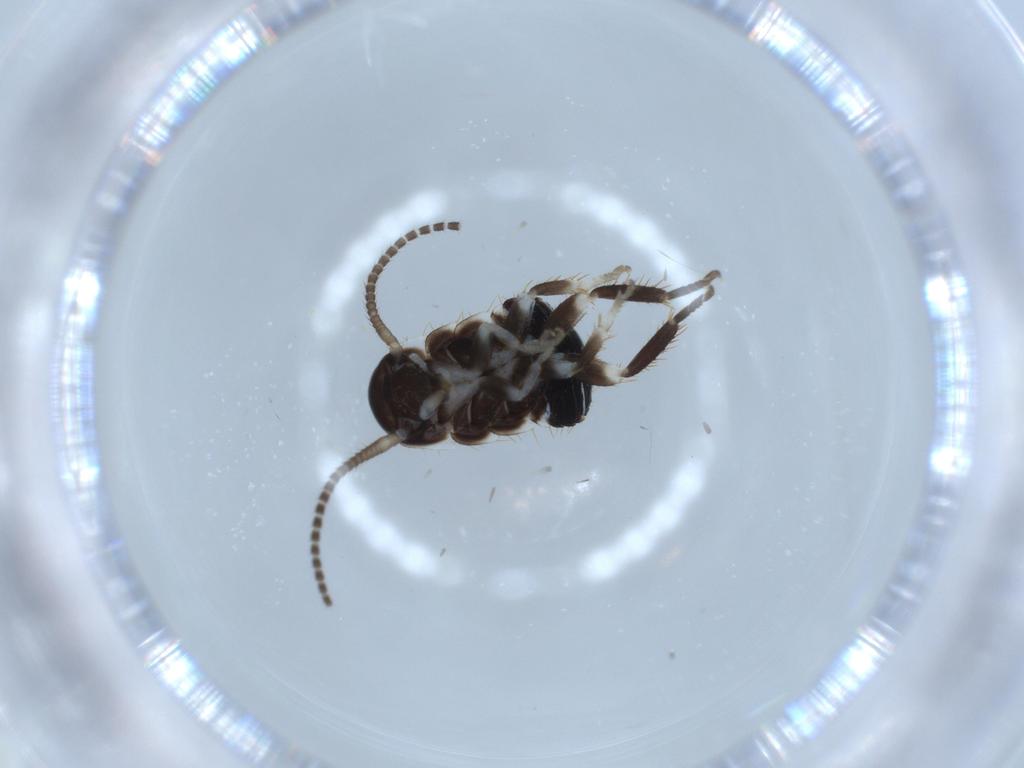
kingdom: Animalia
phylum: Arthropoda
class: Insecta
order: Blattodea
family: Ectobiidae
